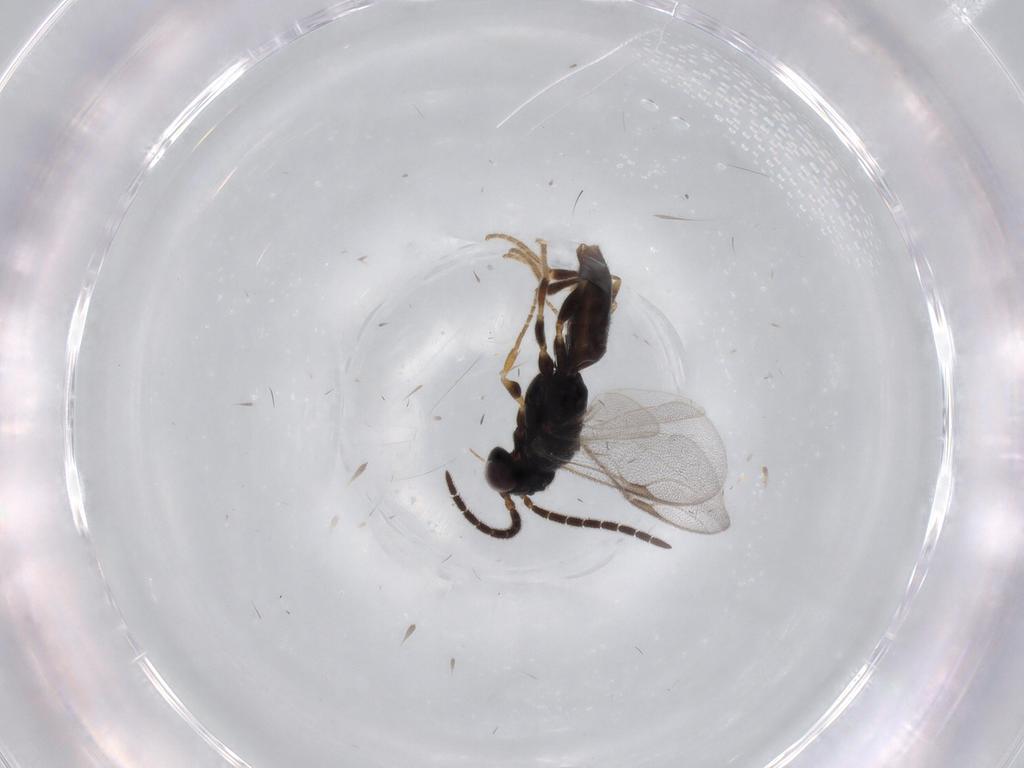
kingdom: Animalia
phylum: Arthropoda
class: Insecta
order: Hymenoptera
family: Dryinidae
